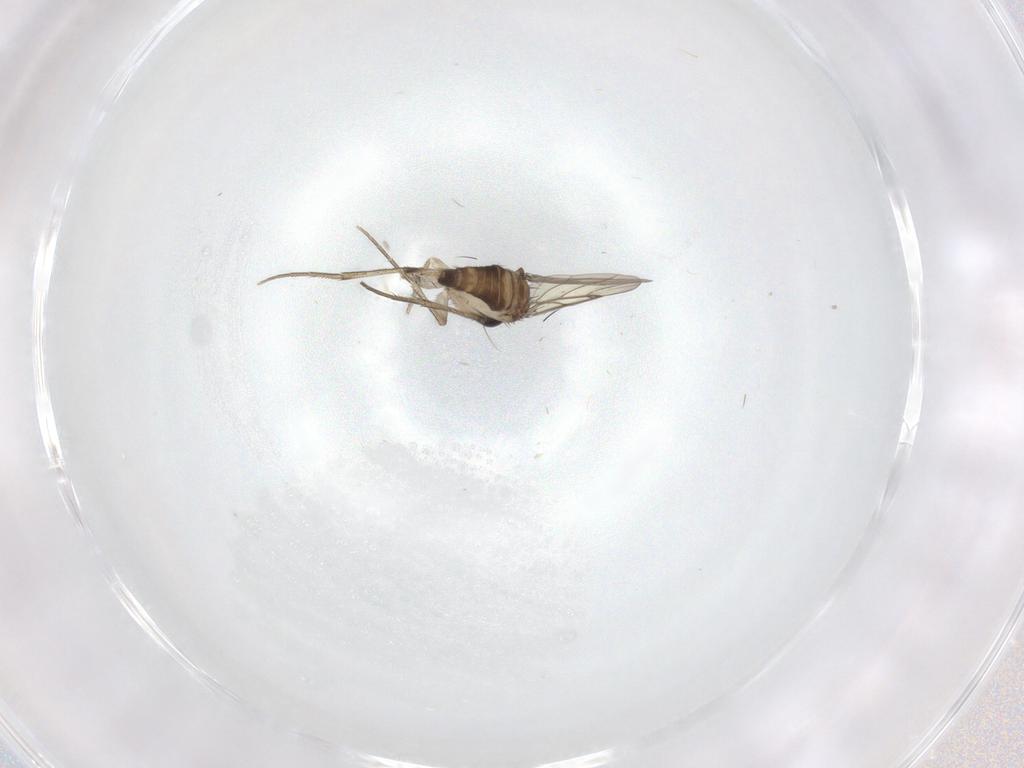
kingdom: Animalia
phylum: Arthropoda
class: Insecta
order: Diptera
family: Phoridae
